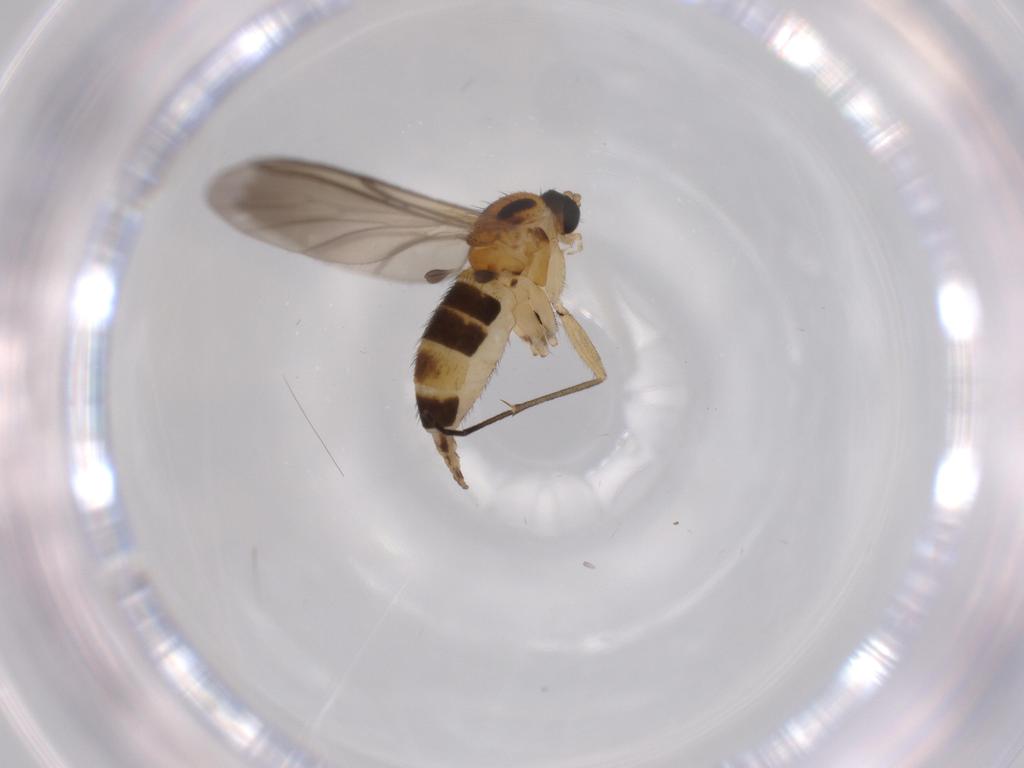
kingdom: Animalia
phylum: Arthropoda
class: Insecta
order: Diptera
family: Sciaridae
